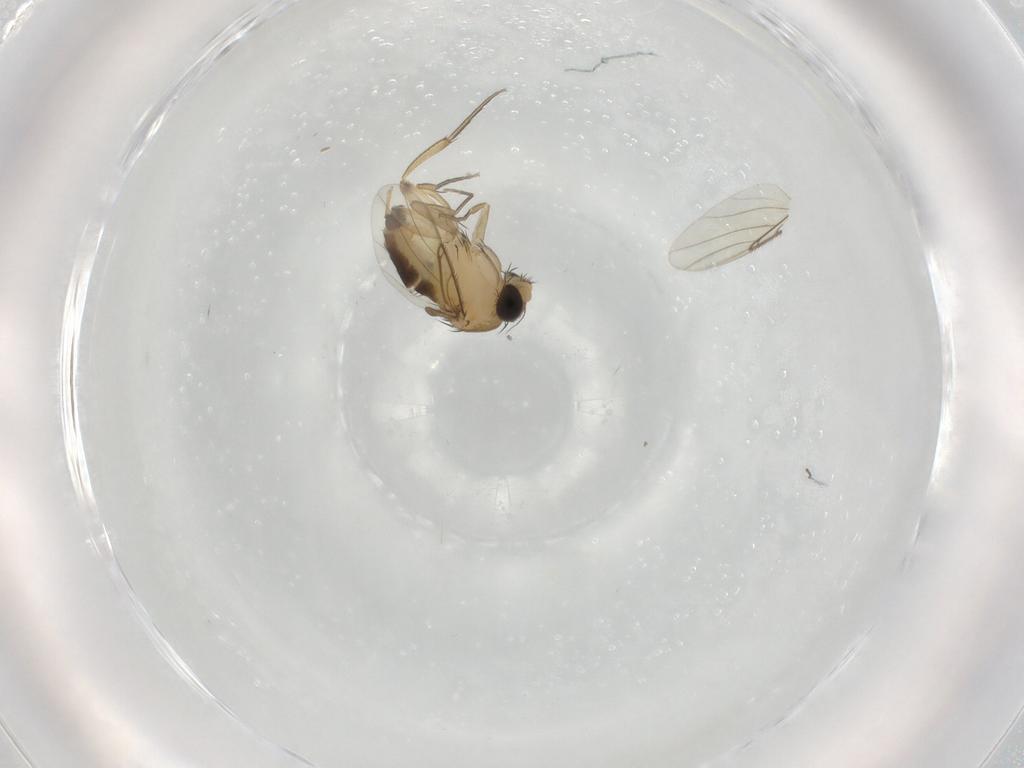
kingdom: Animalia
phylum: Arthropoda
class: Insecta
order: Diptera
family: Phoridae
